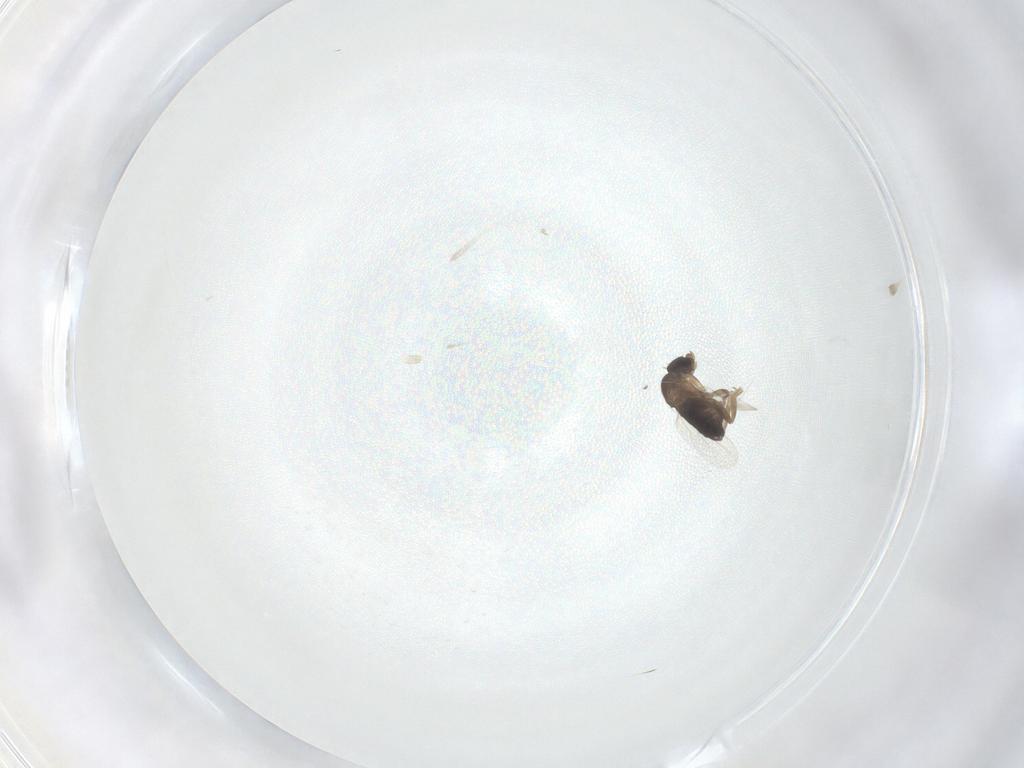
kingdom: Animalia
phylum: Arthropoda
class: Insecta
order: Diptera
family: Phoridae
